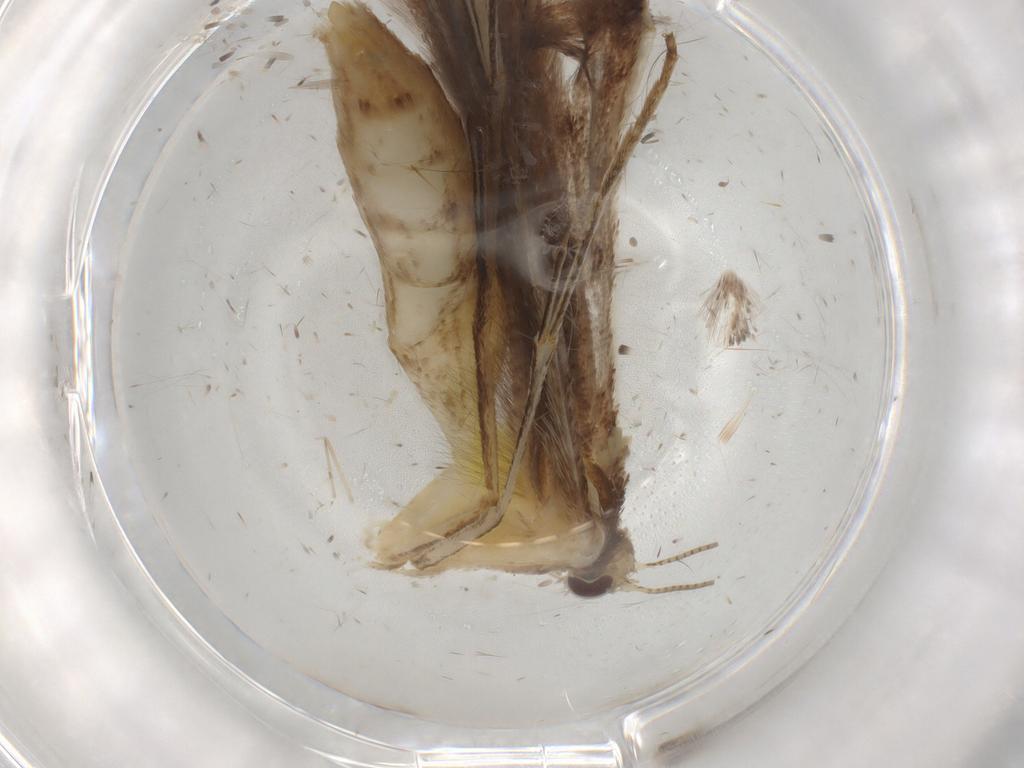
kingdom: Animalia
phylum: Arthropoda
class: Insecta
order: Lepidoptera
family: Elachistidae
